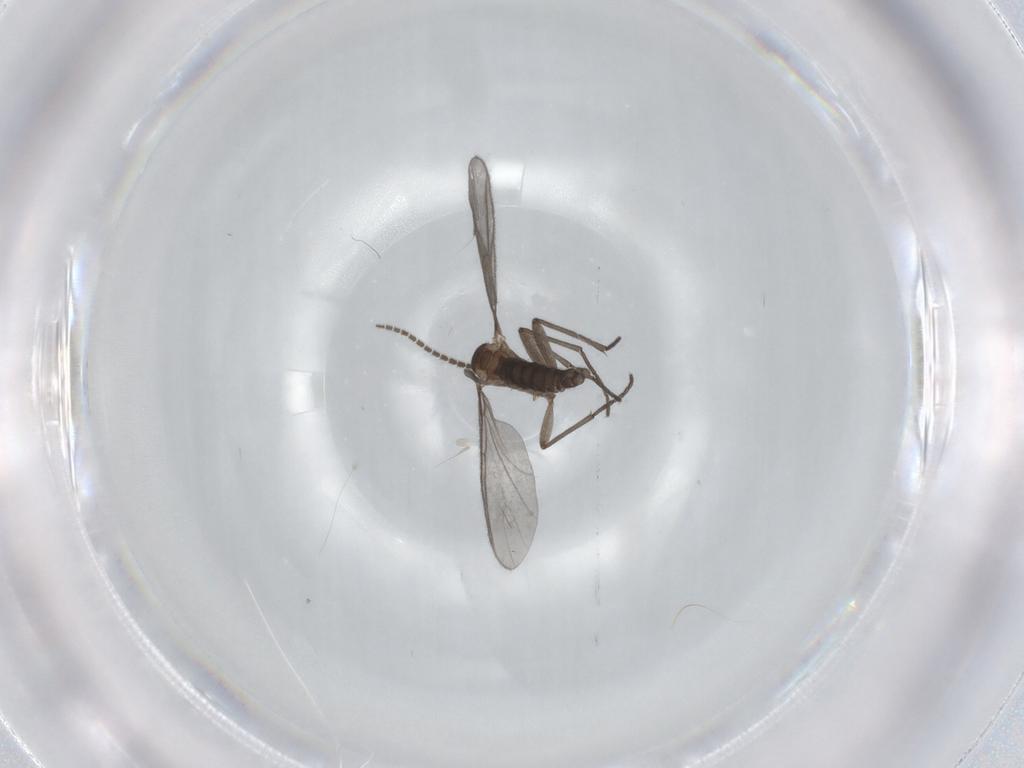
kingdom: Animalia
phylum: Arthropoda
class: Insecta
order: Diptera
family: Sciaridae
